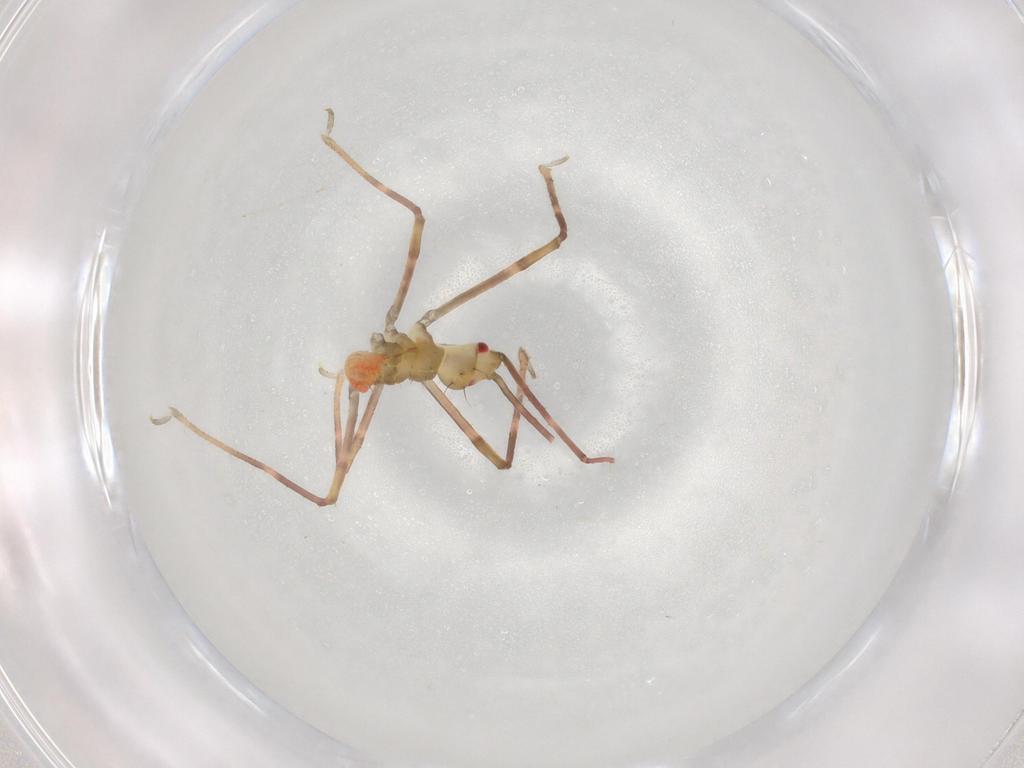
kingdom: Animalia
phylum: Arthropoda
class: Insecta
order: Hemiptera
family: Reduviidae
